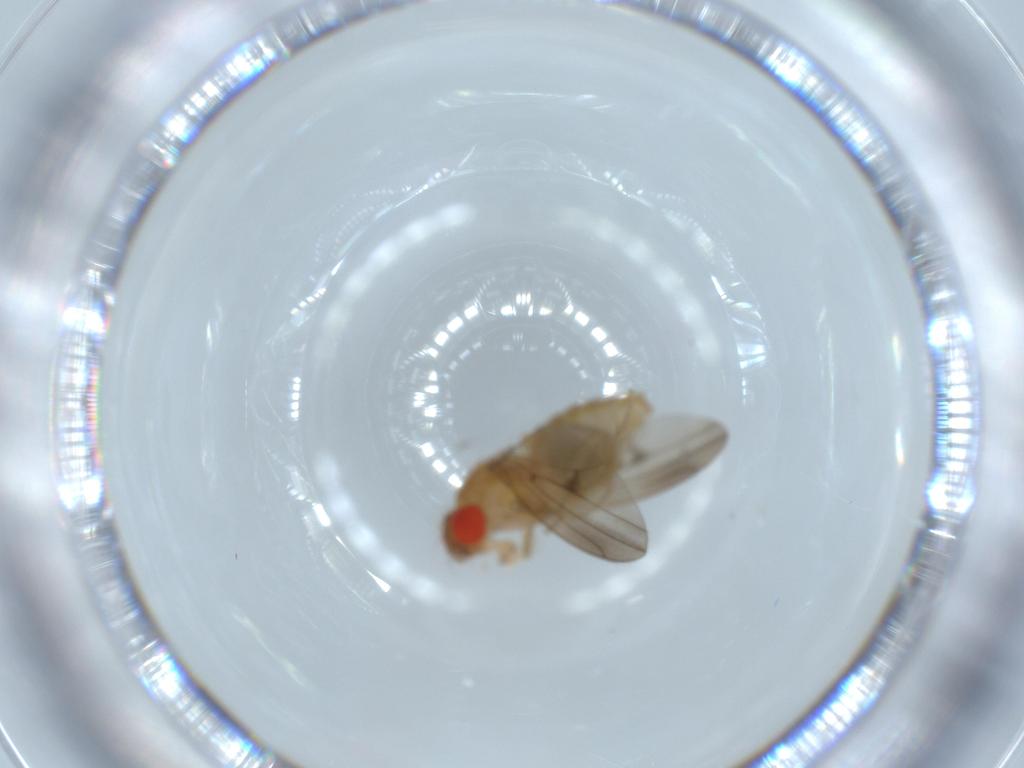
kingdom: Animalia
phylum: Arthropoda
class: Insecta
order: Diptera
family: Drosophilidae
